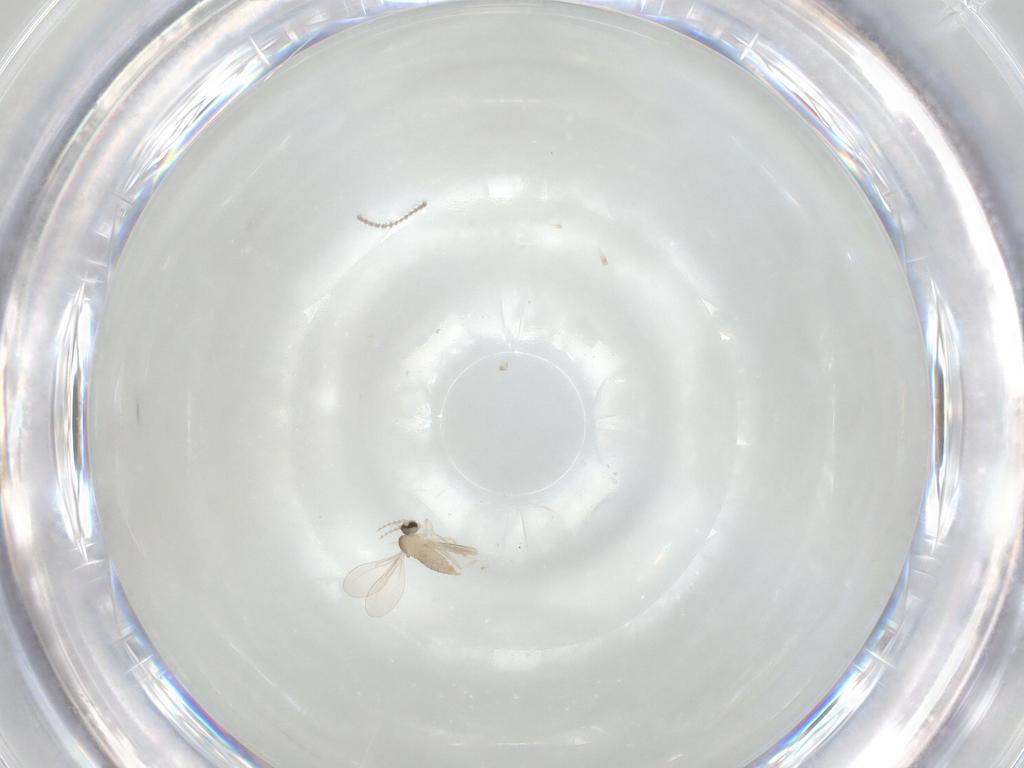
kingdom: Animalia
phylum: Arthropoda
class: Insecta
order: Diptera
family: Cecidomyiidae
